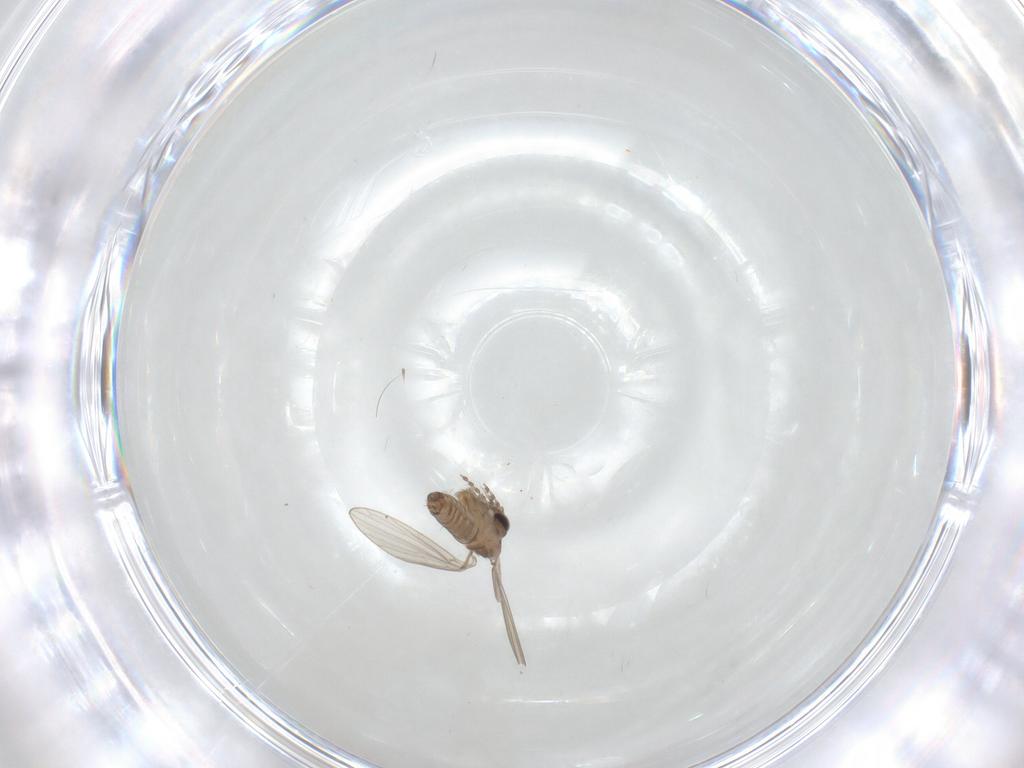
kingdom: Animalia
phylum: Arthropoda
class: Insecta
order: Diptera
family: Psychodidae
